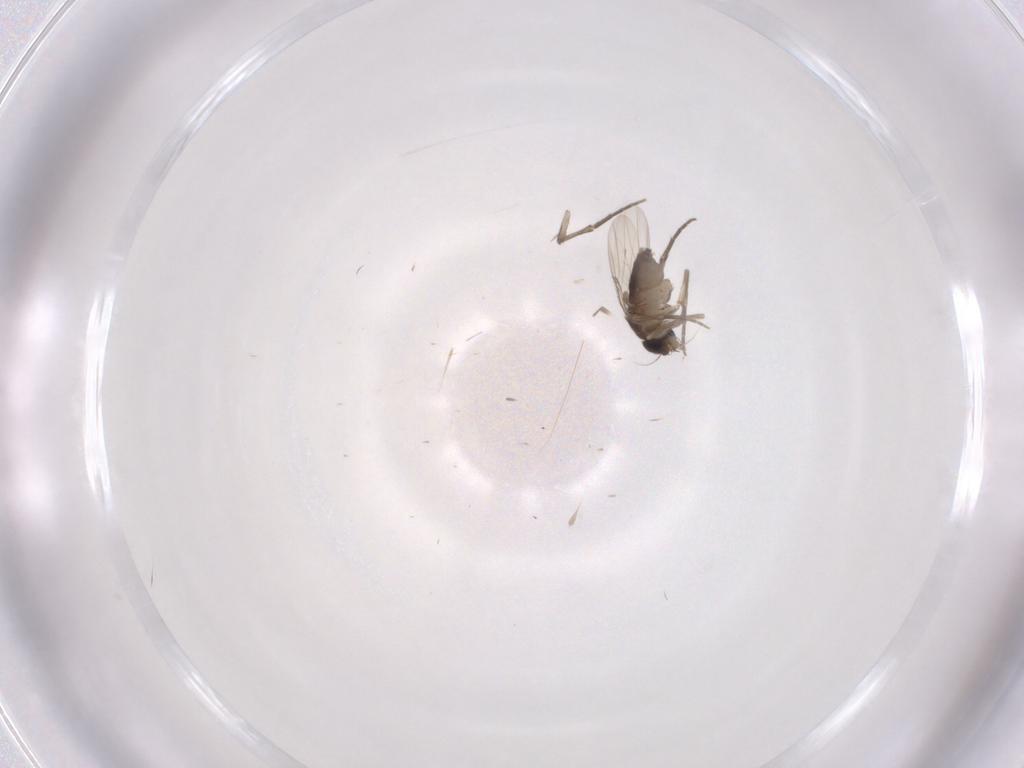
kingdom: Animalia
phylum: Arthropoda
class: Insecta
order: Diptera
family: Phoridae
